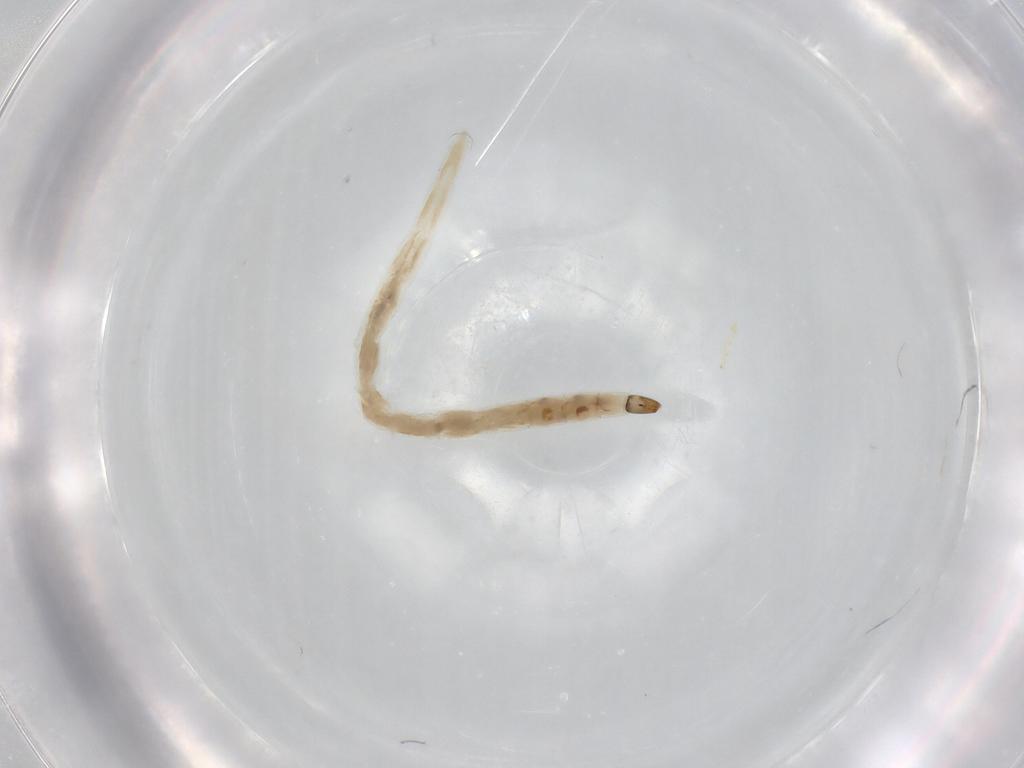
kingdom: Animalia
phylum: Arthropoda
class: Insecta
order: Diptera
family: Ceratopogonidae
